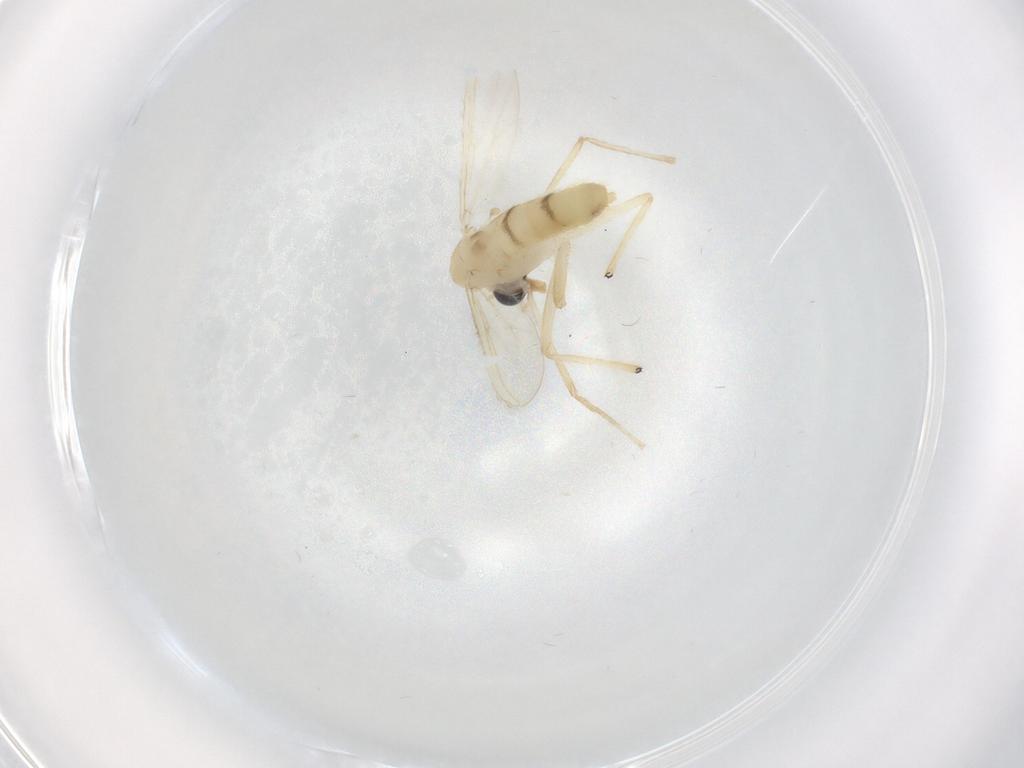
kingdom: Animalia
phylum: Arthropoda
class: Insecta
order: Diptera
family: Chironomidae
